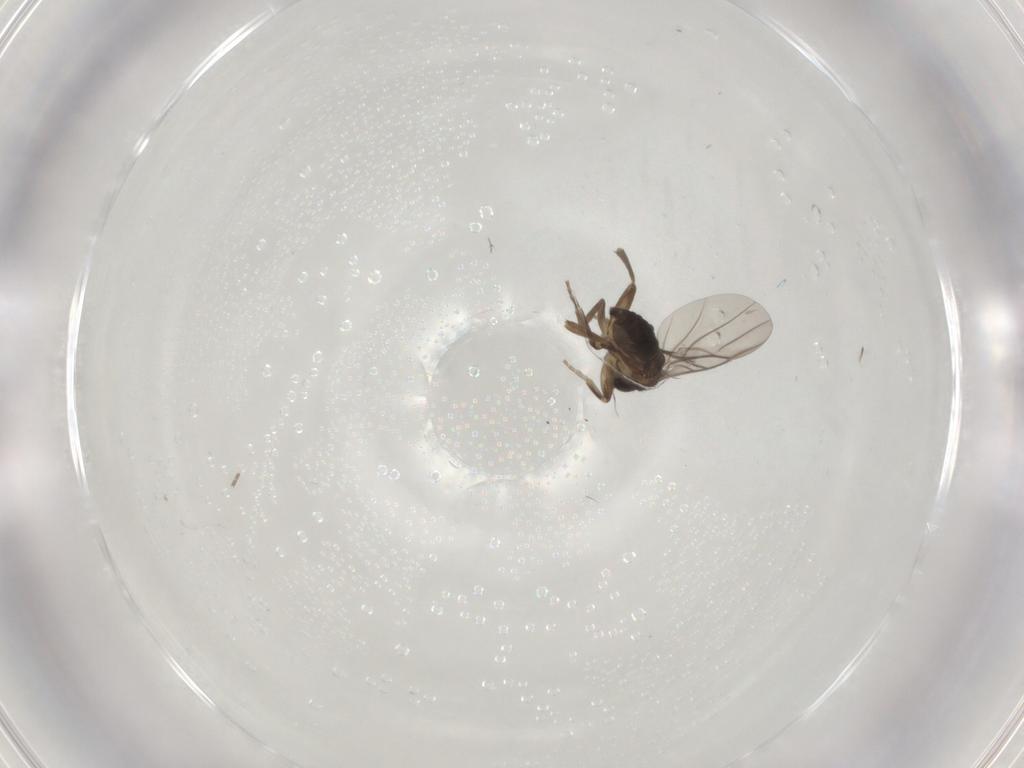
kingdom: Animalia
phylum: Arthropoda
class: Insecta
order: Diptera
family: Phoridae
